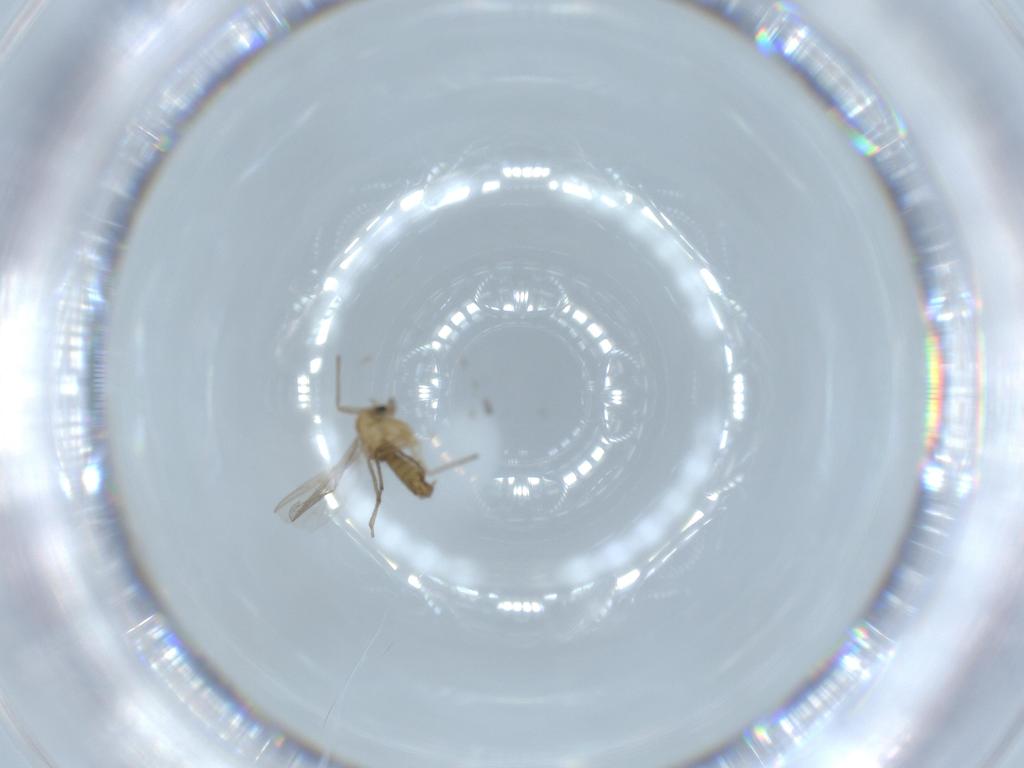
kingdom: Animalia
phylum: Arthropoda
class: Insecta
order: Diptera
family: Chironomidae
